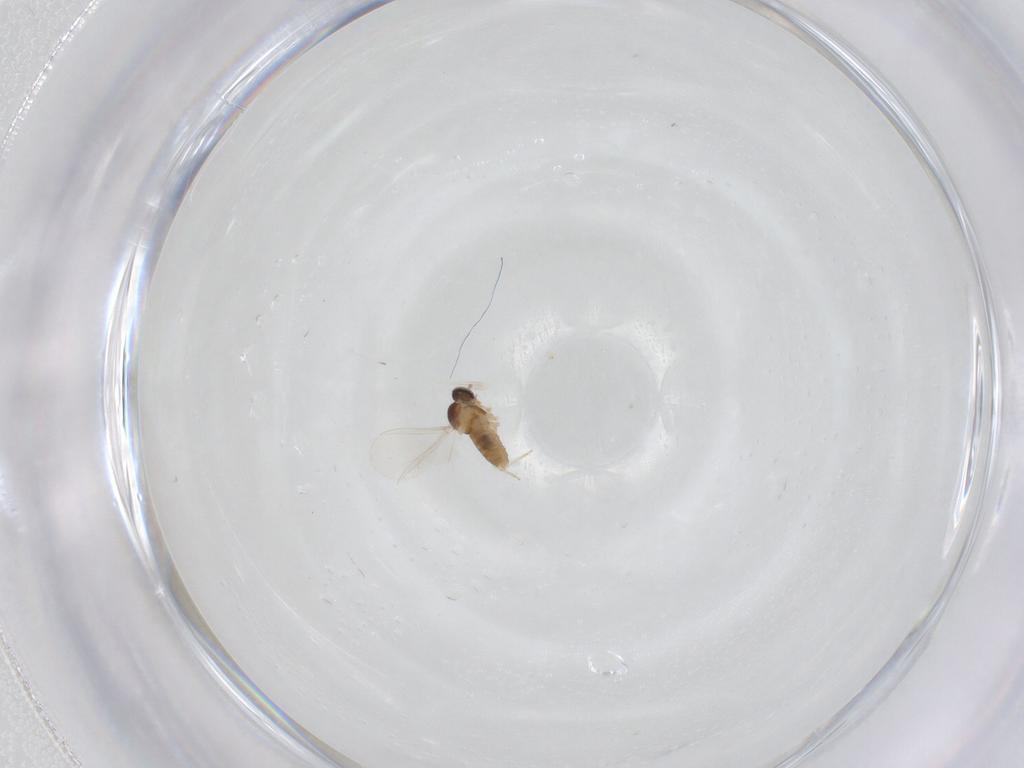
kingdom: Animalia
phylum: Arthropoda
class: Insecta
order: Diptera
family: Cecidomyiidae
